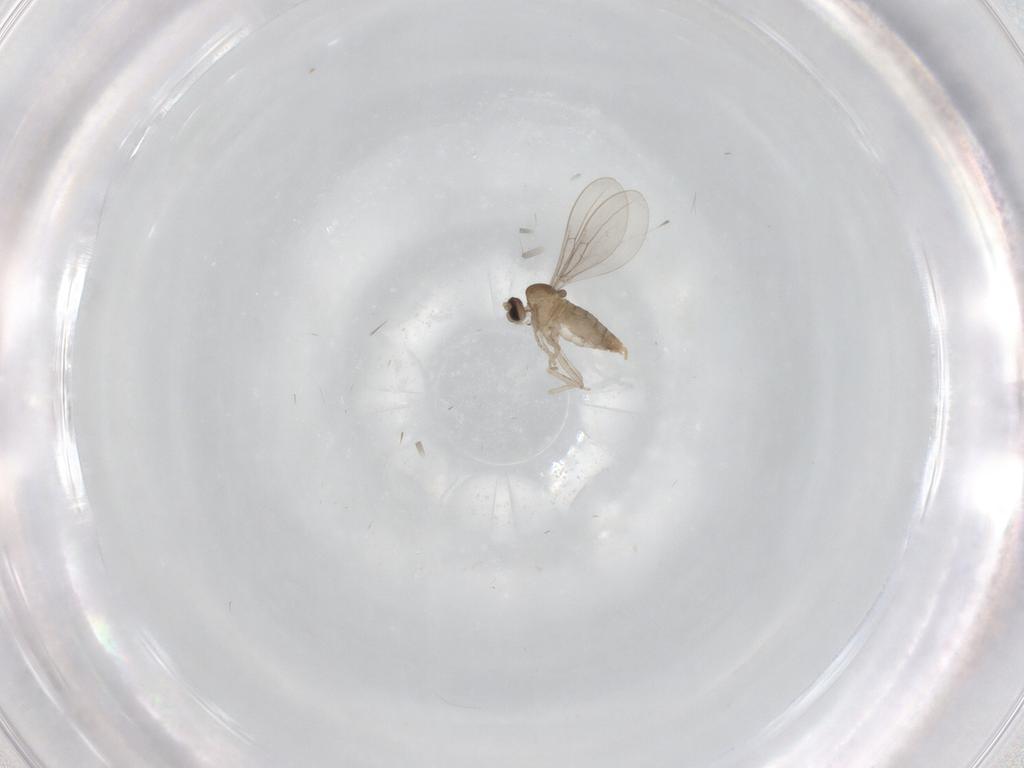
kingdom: Animalia
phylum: Arthropoda
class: Insecta
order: Diptera
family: Cecidomyiidae
